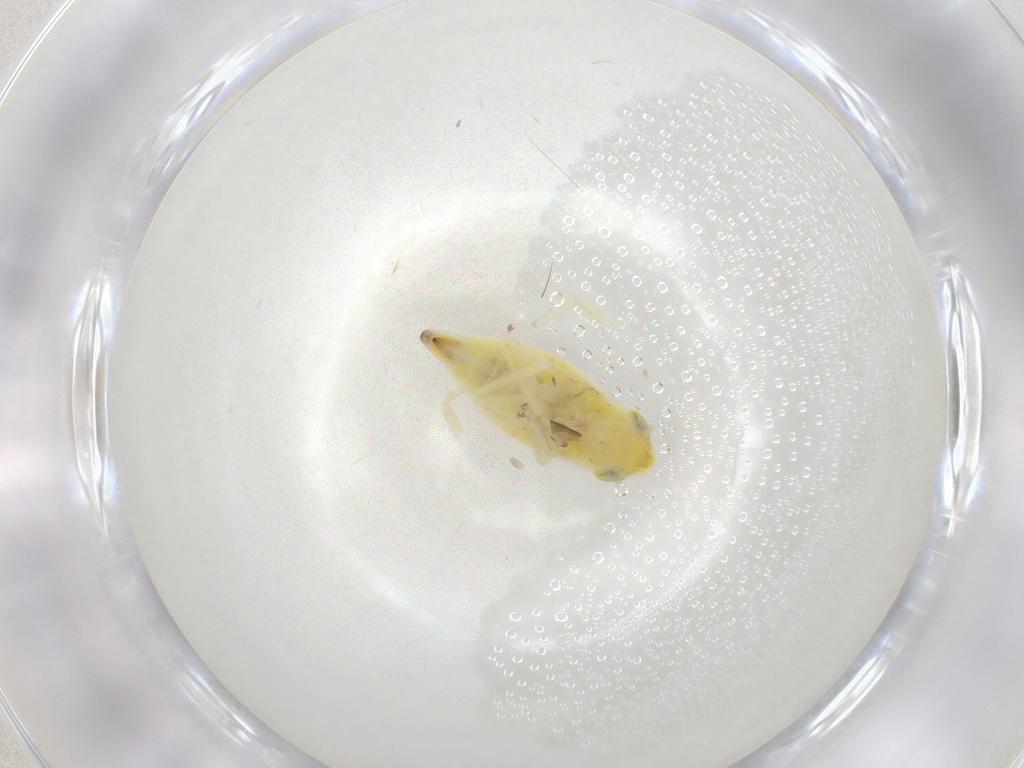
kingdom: Animalia
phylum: Arthropoda
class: Insecta
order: Hemiptera
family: Cicadellidae
